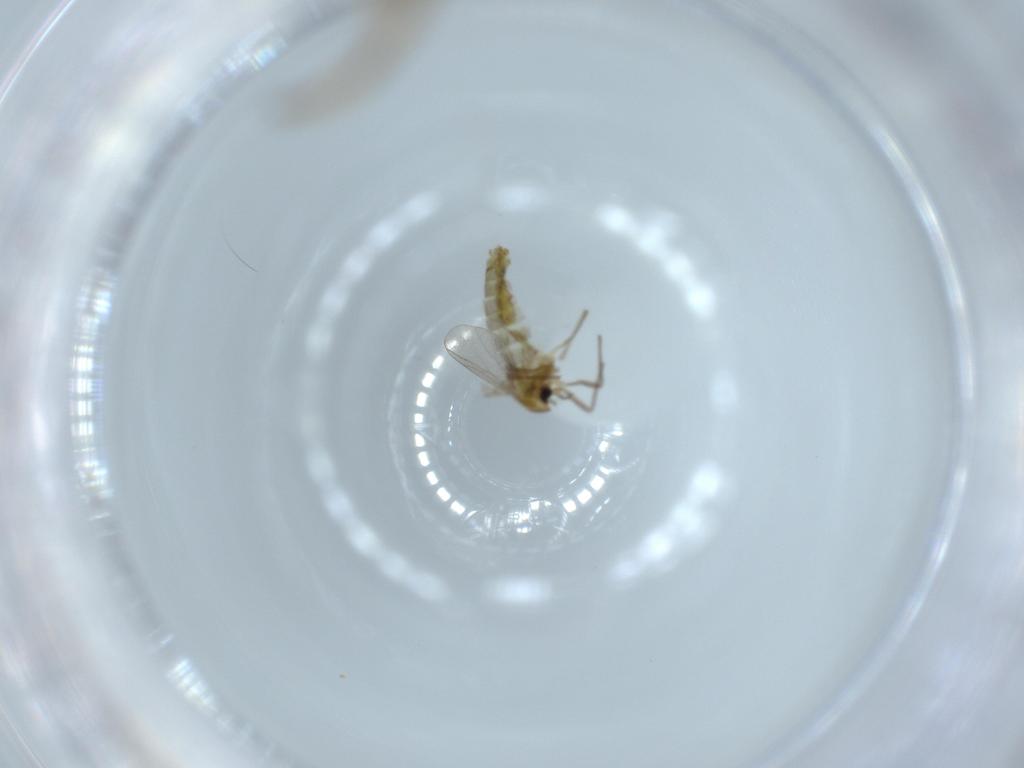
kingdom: Animalia
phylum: Arthropoda
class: Insecta
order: Diptera
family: Chironomidae
